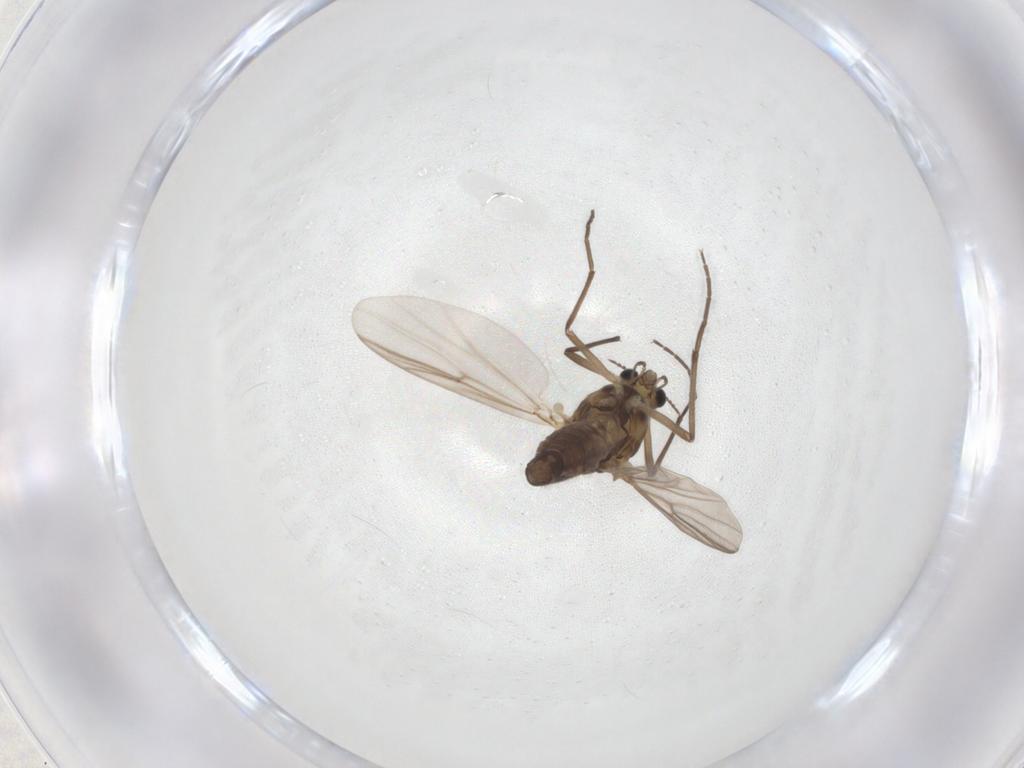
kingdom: Animalia
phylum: Arthropoda
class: Insecta
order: Diptera
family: Chironomidae
